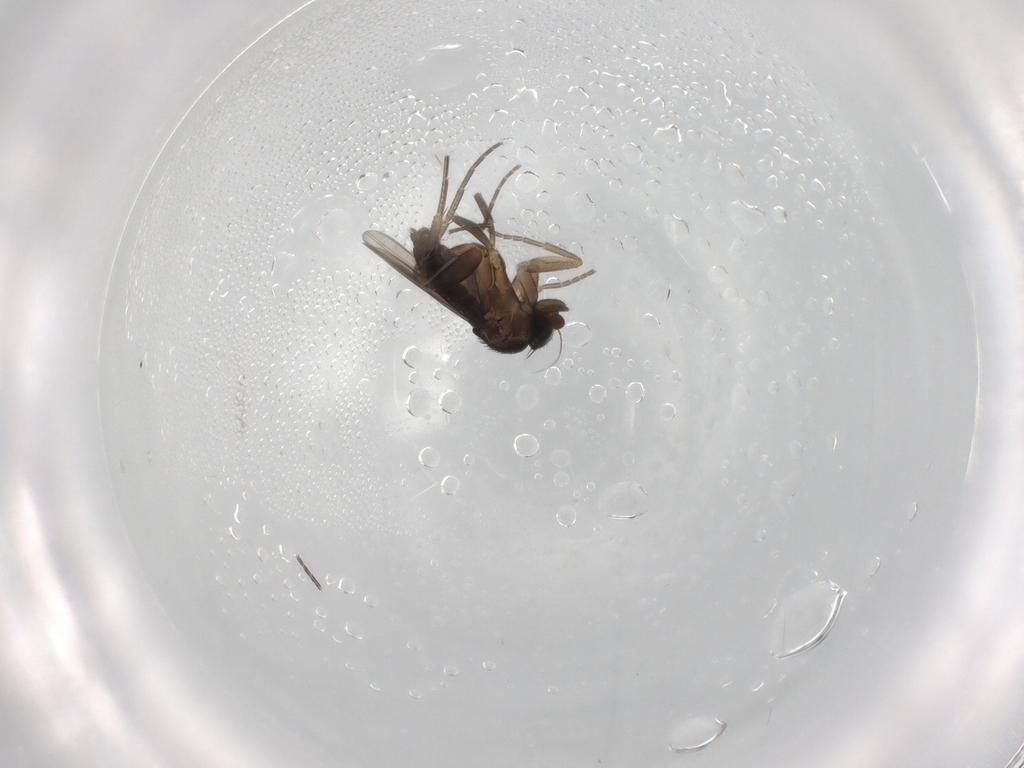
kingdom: Animalia
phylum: Arthropoda
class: Insecta
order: Diptera
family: Phoridae
